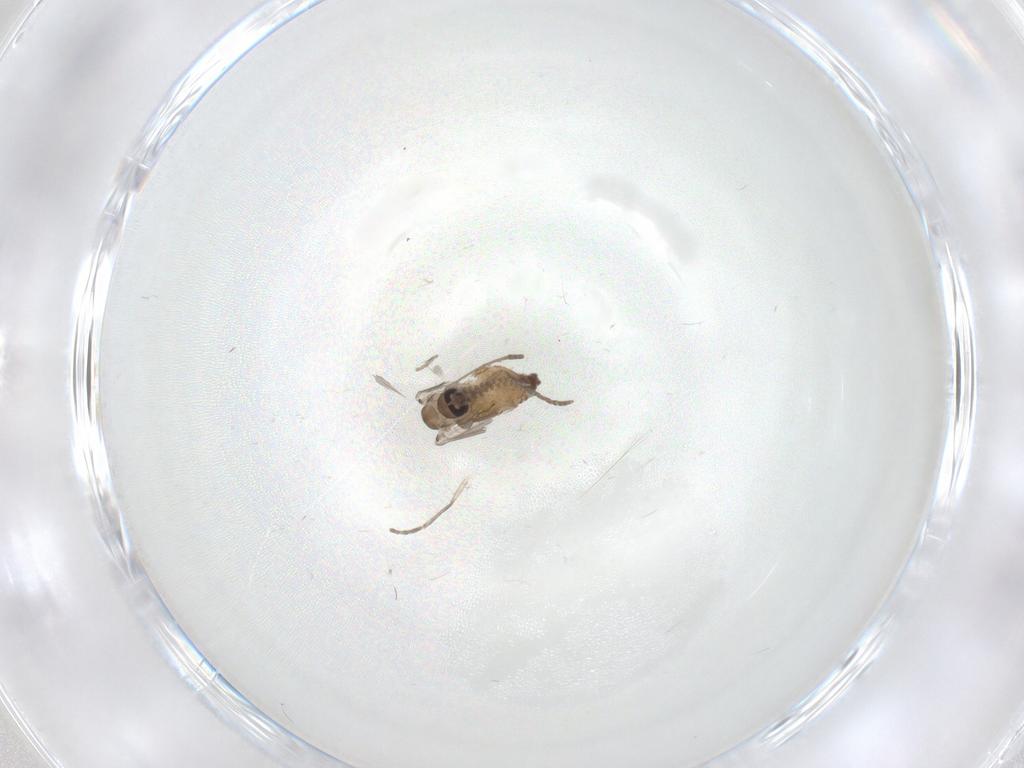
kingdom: Animalia
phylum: Arthropoda
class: Insecta
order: Diptera
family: Psychodidae
